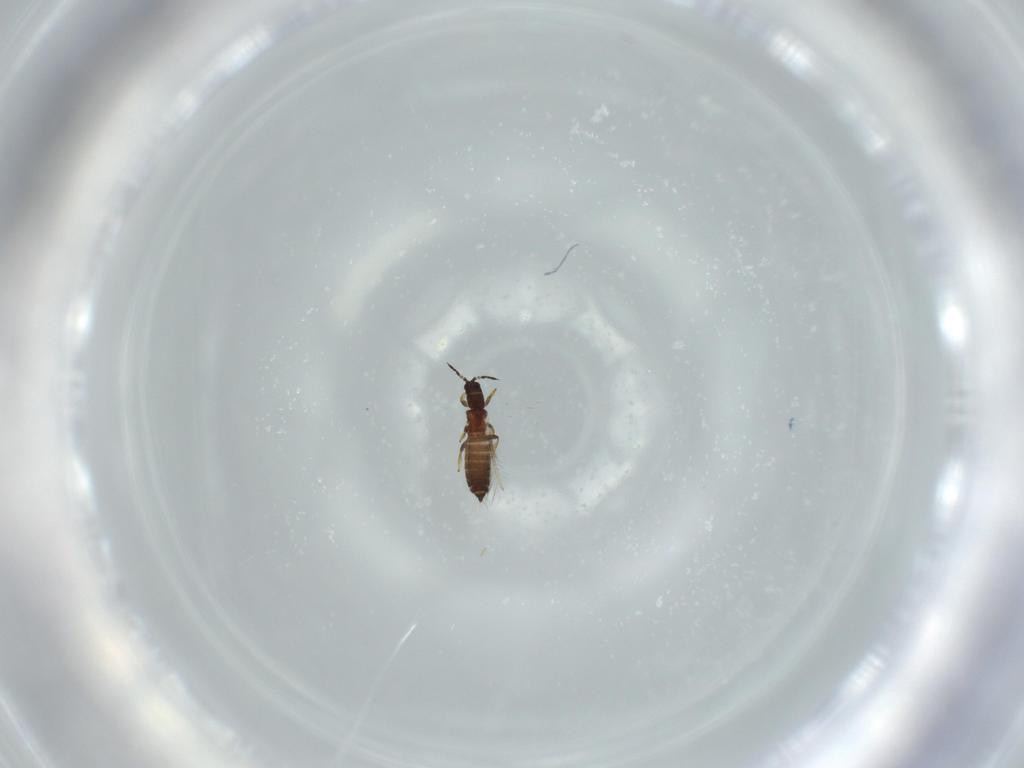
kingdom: Animalia
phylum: Arthropoda
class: Insecta
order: Thysanoptera
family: Thripidae
